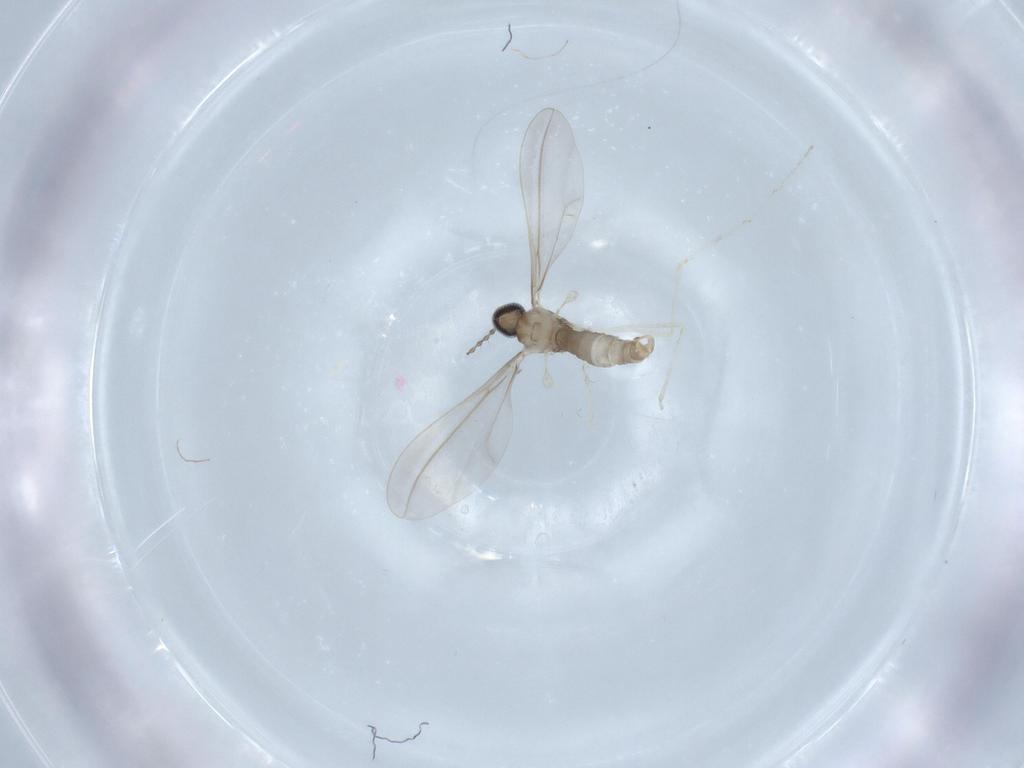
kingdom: Animalia
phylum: Arthropoda
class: Insecta
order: Diptera
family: Cecidomyiidae
